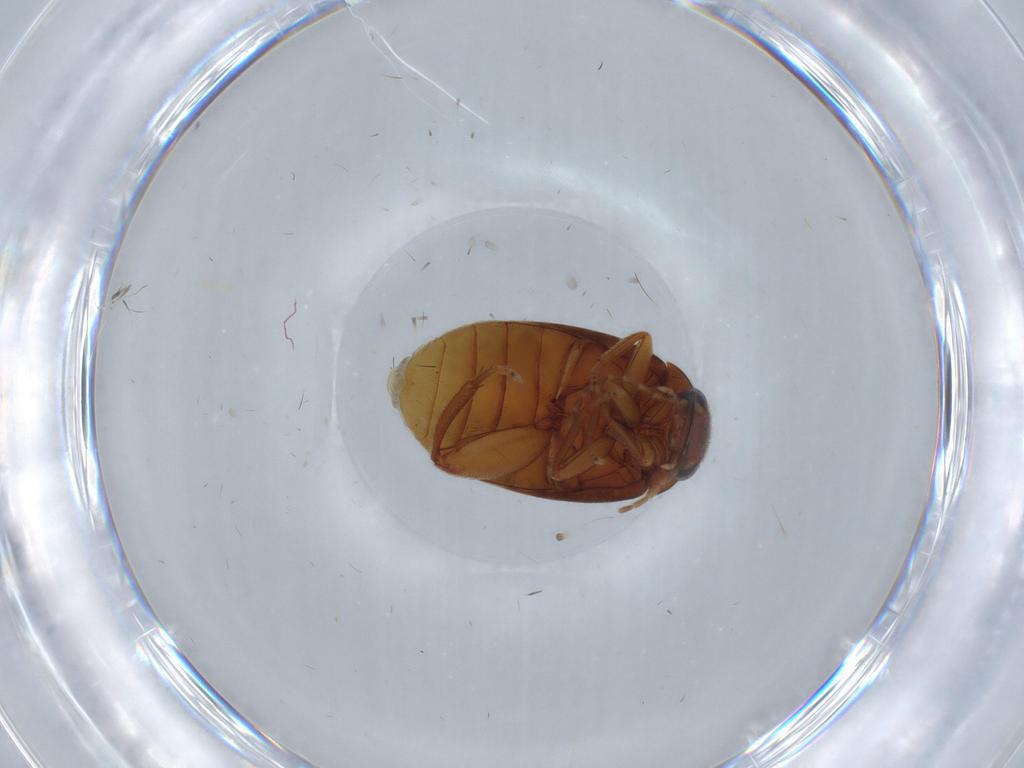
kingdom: Animalia
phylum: Arthropoda
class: Insecta
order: Coleoptera
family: Scirtidae
